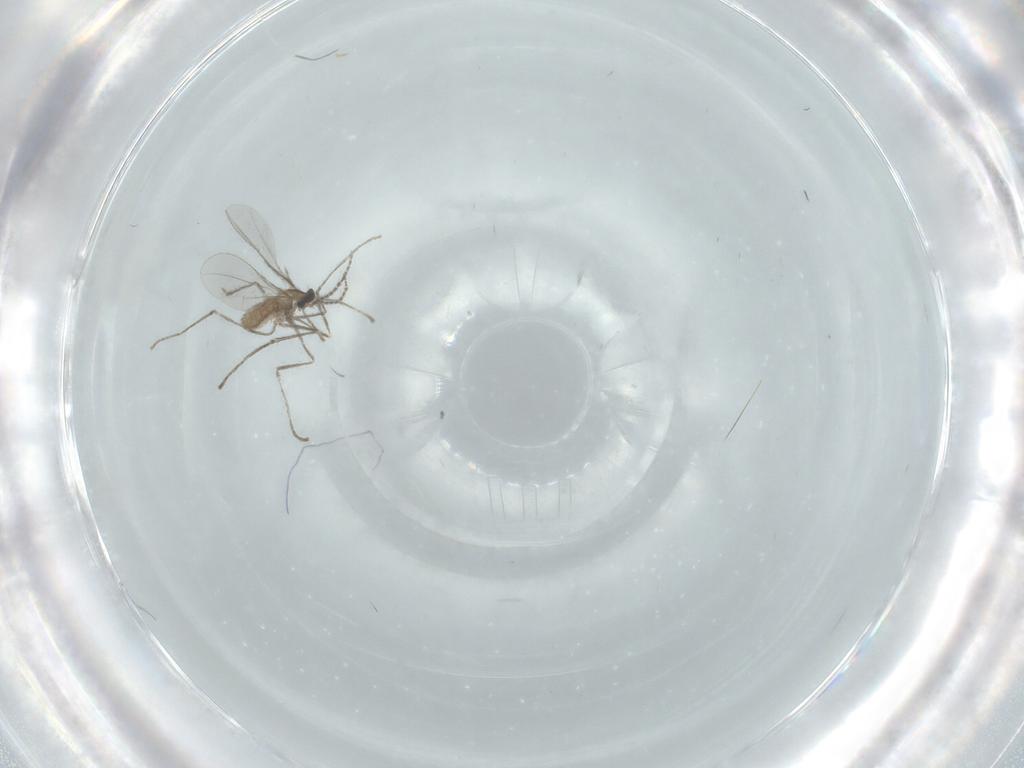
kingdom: Animalia
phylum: Arthropoda
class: Insecta
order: Diptera
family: Cecidomyiidae
